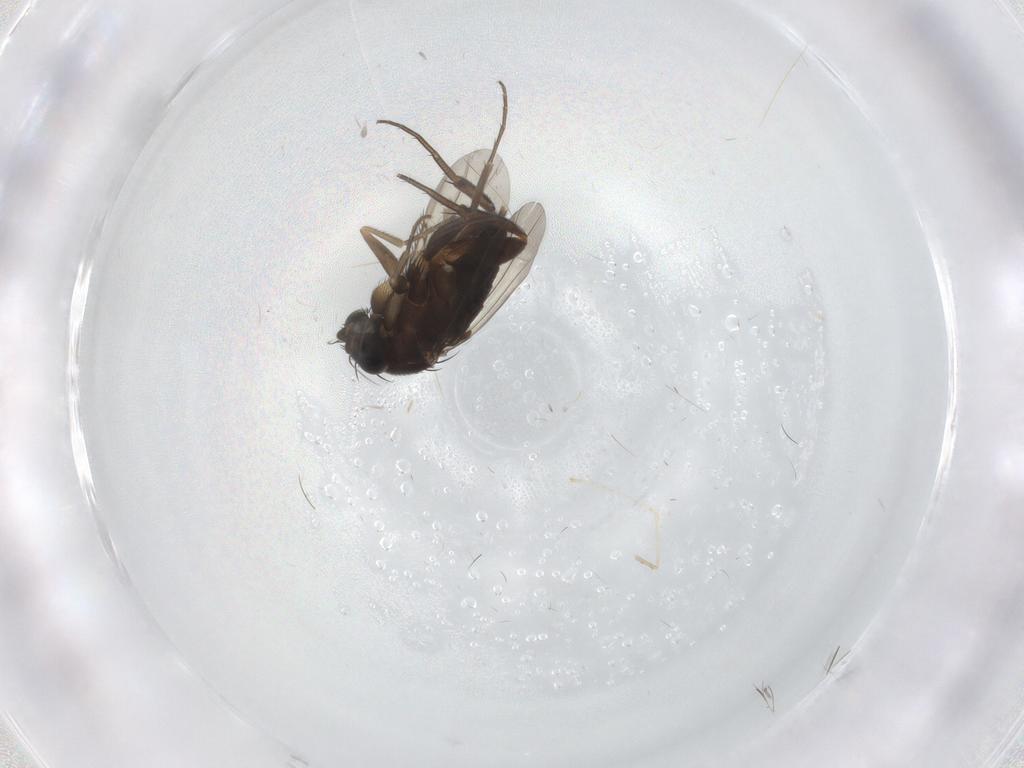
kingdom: Animalia
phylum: Arthropoda
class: Insecta
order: Diptera
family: Phoridae
